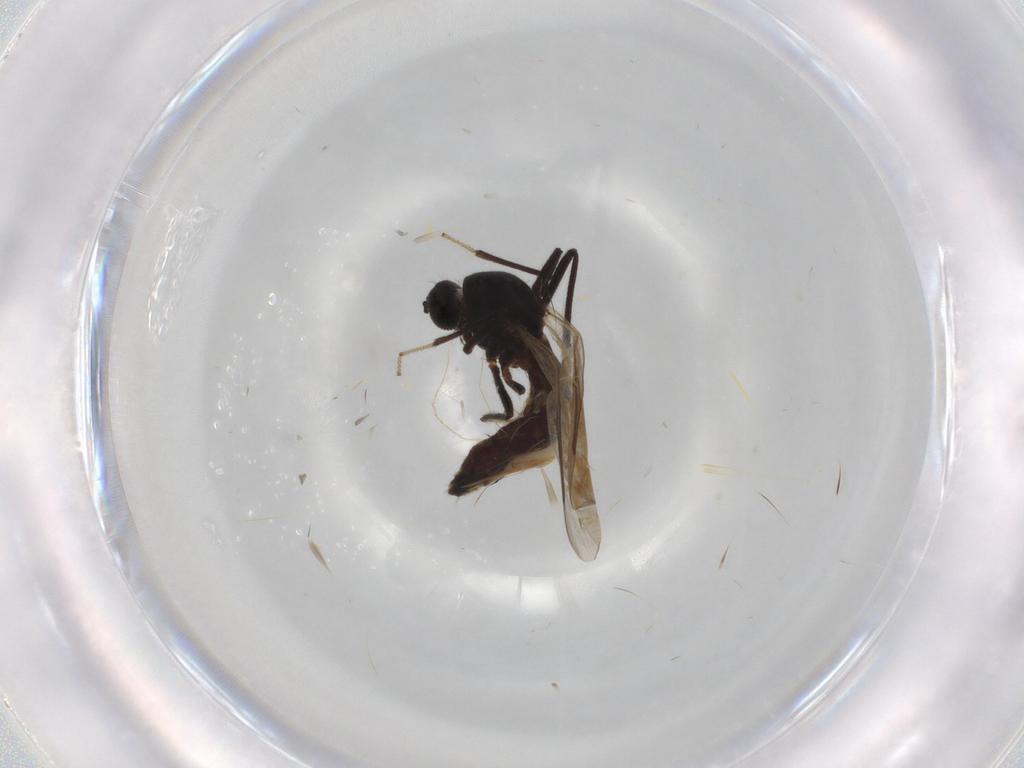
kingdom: Animalia
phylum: Arthropoda
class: Insecta
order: Diptera
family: Ceratopogonidae
